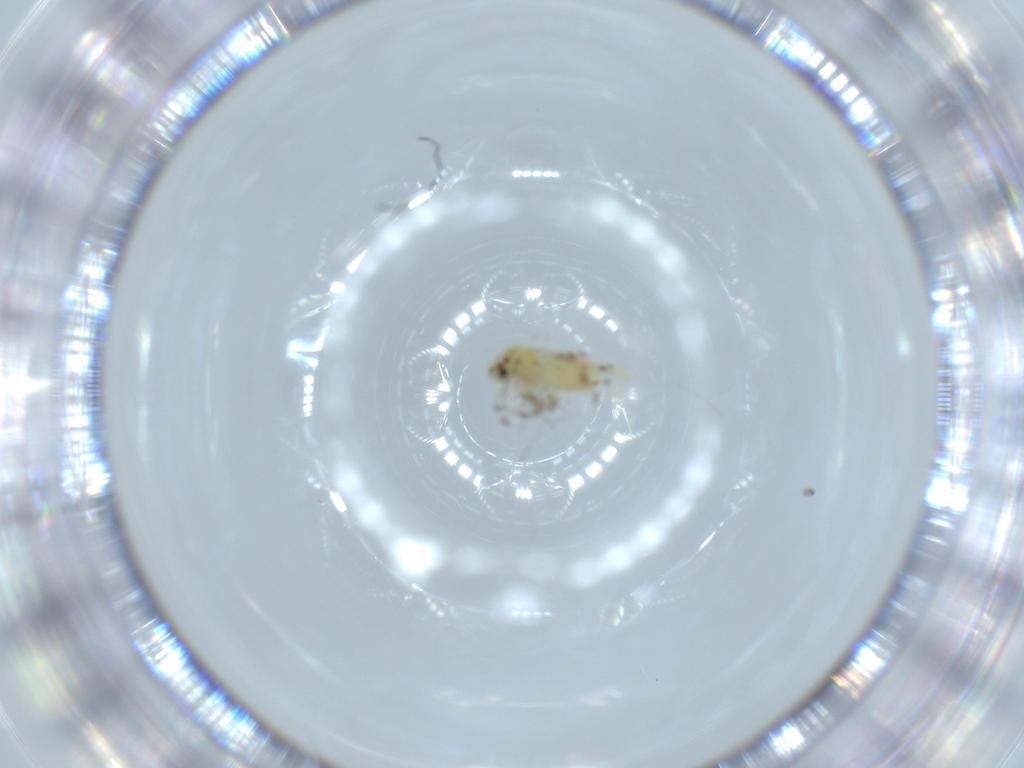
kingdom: Animalia
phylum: Arthropoda
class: Insecta
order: Hemiptera
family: Aleyrodidae
